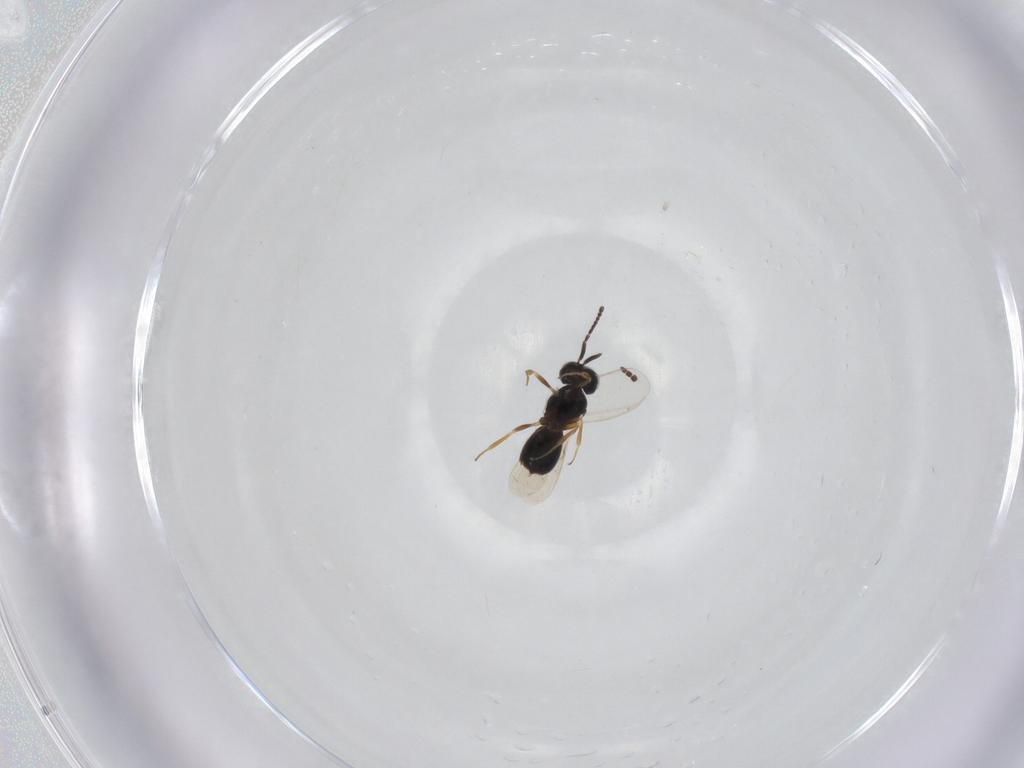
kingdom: Animalia
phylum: Arthropoda
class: Insecta
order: Hymenoptera
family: Scelionidae
